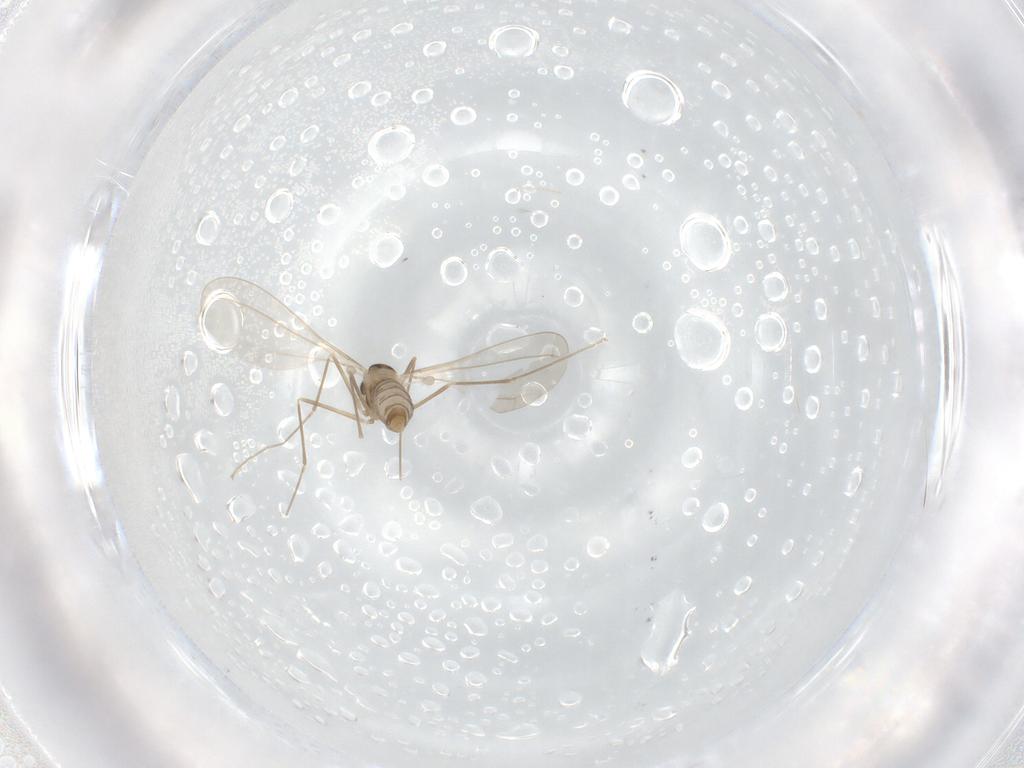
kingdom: Animalia
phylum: Arthropoda
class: Insecta
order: Diptera
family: Cecidomyiidae
